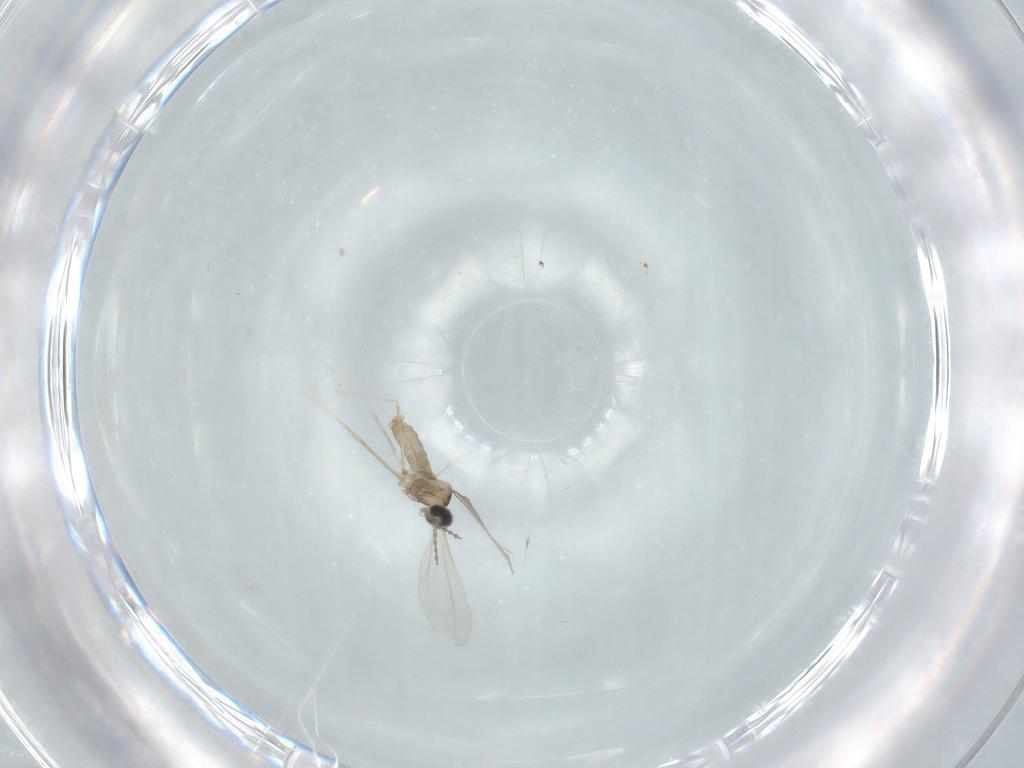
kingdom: Animalia
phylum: Arthropoda
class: Insecta
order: Diptera
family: Cecidomyiidae
